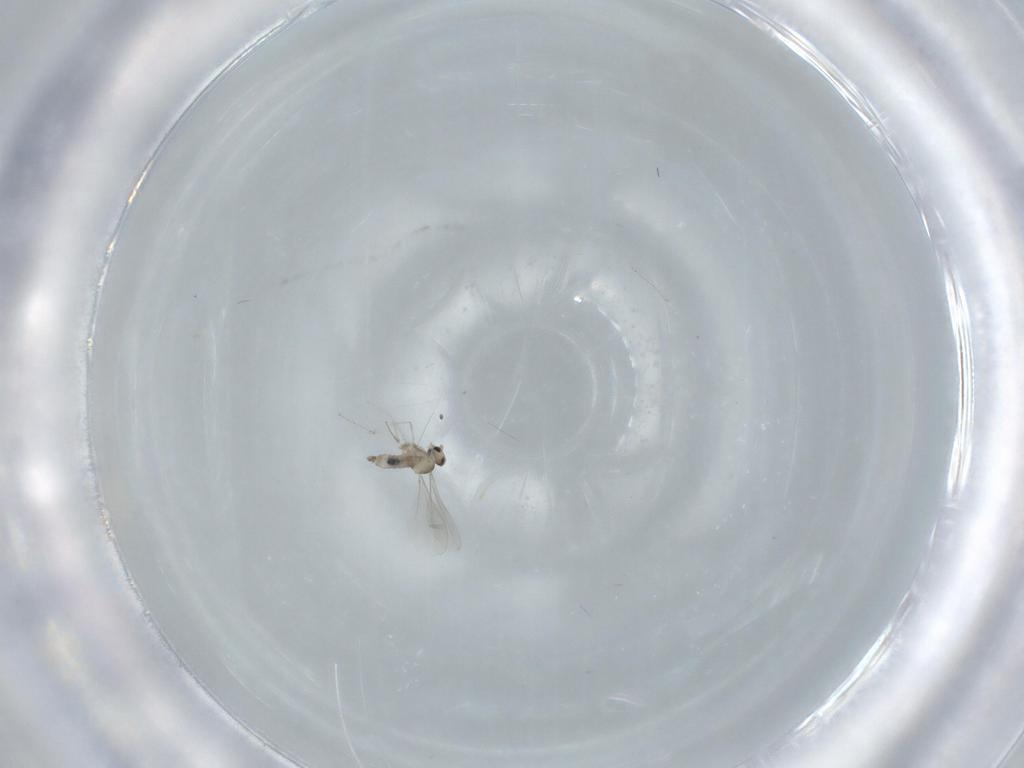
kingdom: Animalia
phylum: Arthropoda
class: Insecta
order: Diptera
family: Cecidomyiidae
